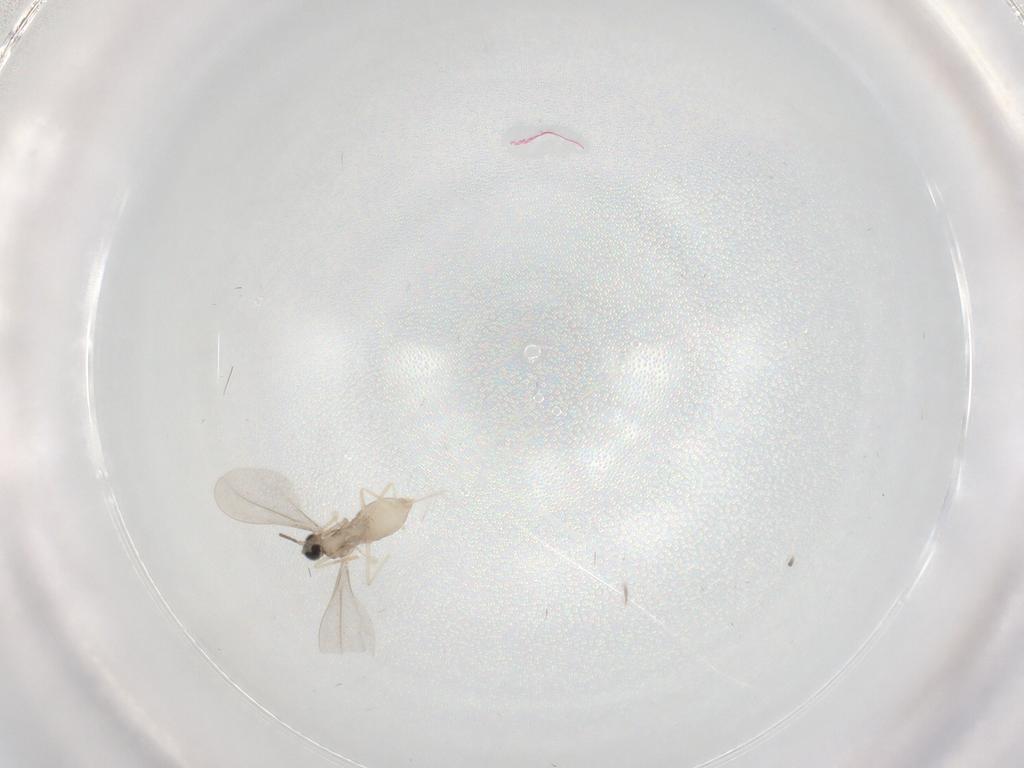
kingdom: Animalia
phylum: Arthropoda
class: Insecta
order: Diptera
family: Cecidomyiidae
